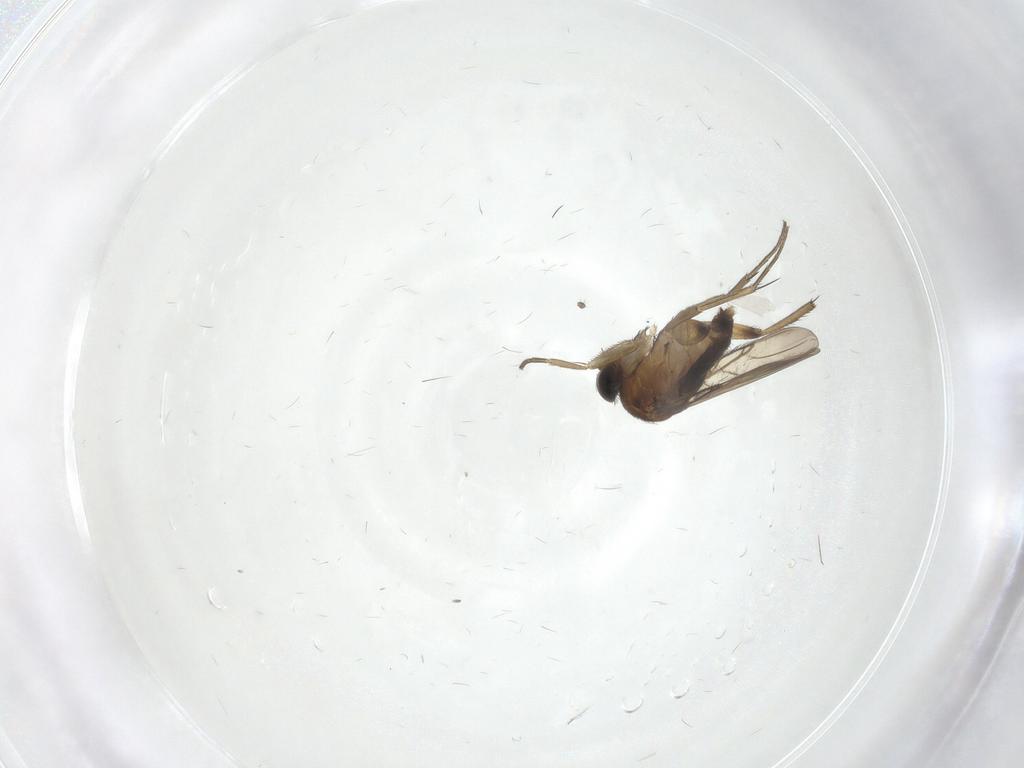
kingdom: Animalia
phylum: Arthropoda
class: Insecta
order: Diptera
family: Phoridae
